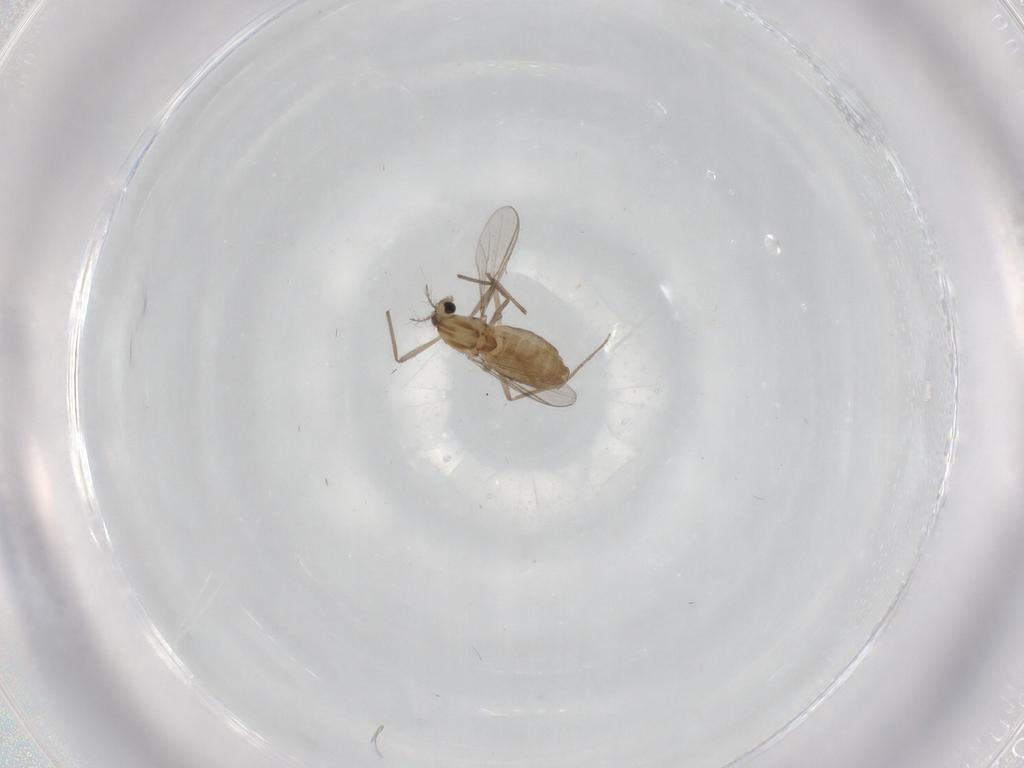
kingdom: Animalia
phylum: Arthropoda
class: Insecta
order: Diptera
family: Chironomidae
